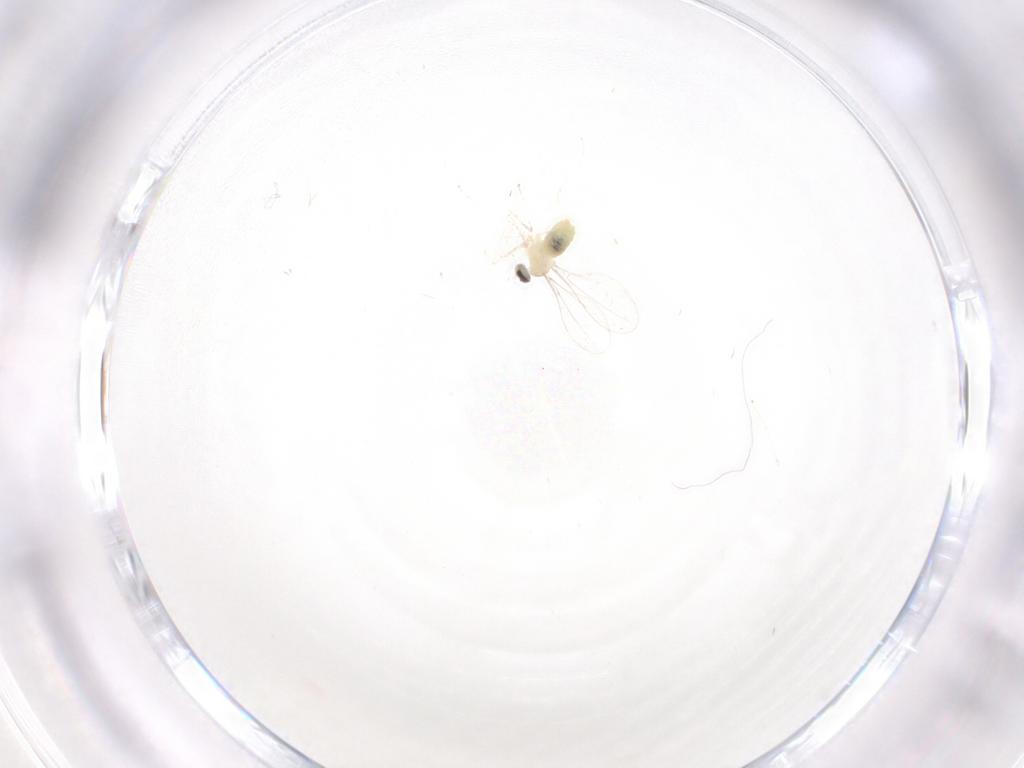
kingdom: Animalia
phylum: Arthropoda
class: Insecta
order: Diptera
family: Cecidomyiidae
